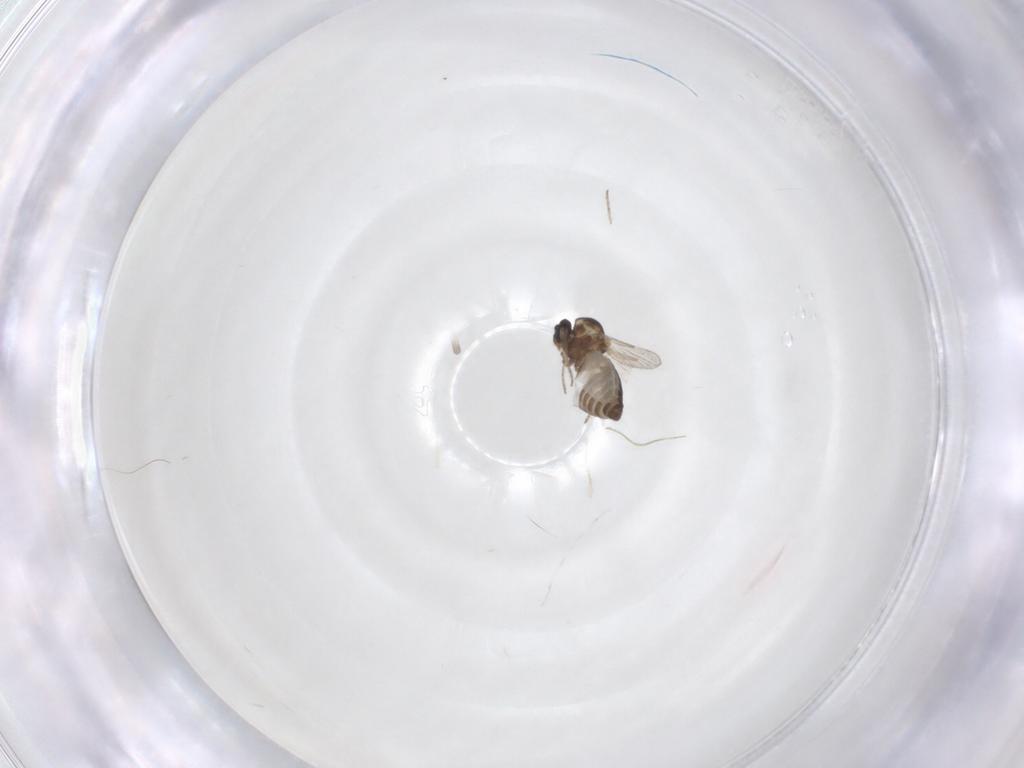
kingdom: Animalia
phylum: Arthropoda
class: Insecta
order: Diptera
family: Ceratopogonidae
